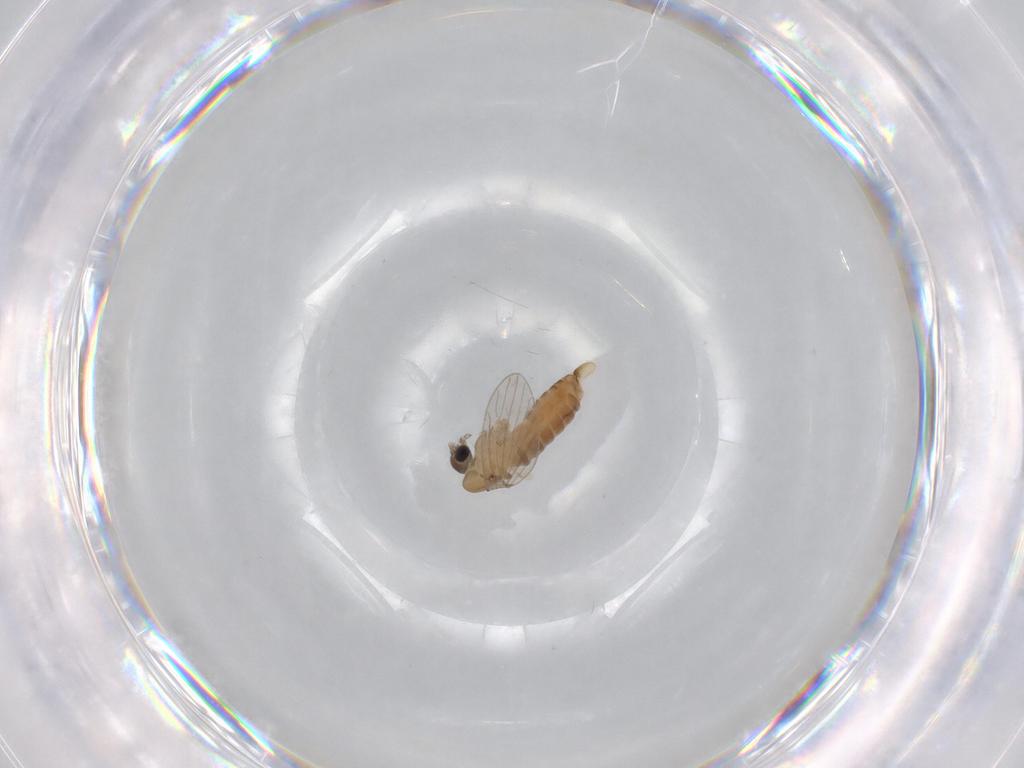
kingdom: Animalia
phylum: Arthropoda
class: Insecta
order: Diptera
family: Psychodidae
